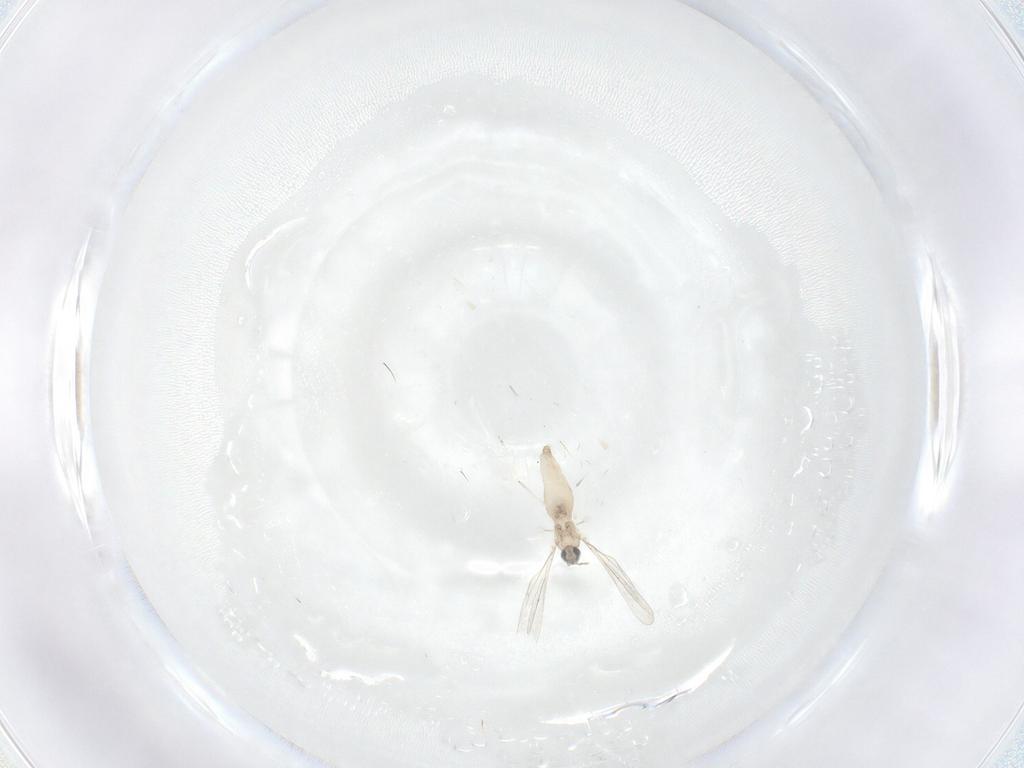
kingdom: Animalia
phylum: Arthropoda
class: Insecta
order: Diptera
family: Cecidomyiidae
